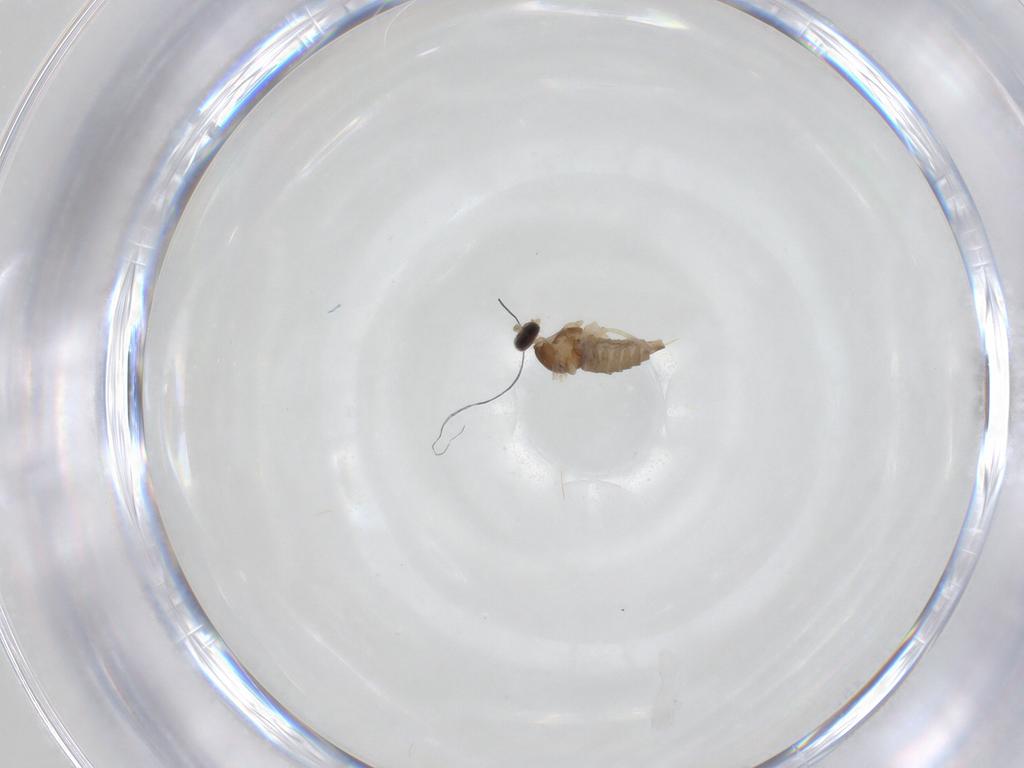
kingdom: Animalia
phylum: Arthropoda
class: Insecta
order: Diptera
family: Cecidomyiidae
